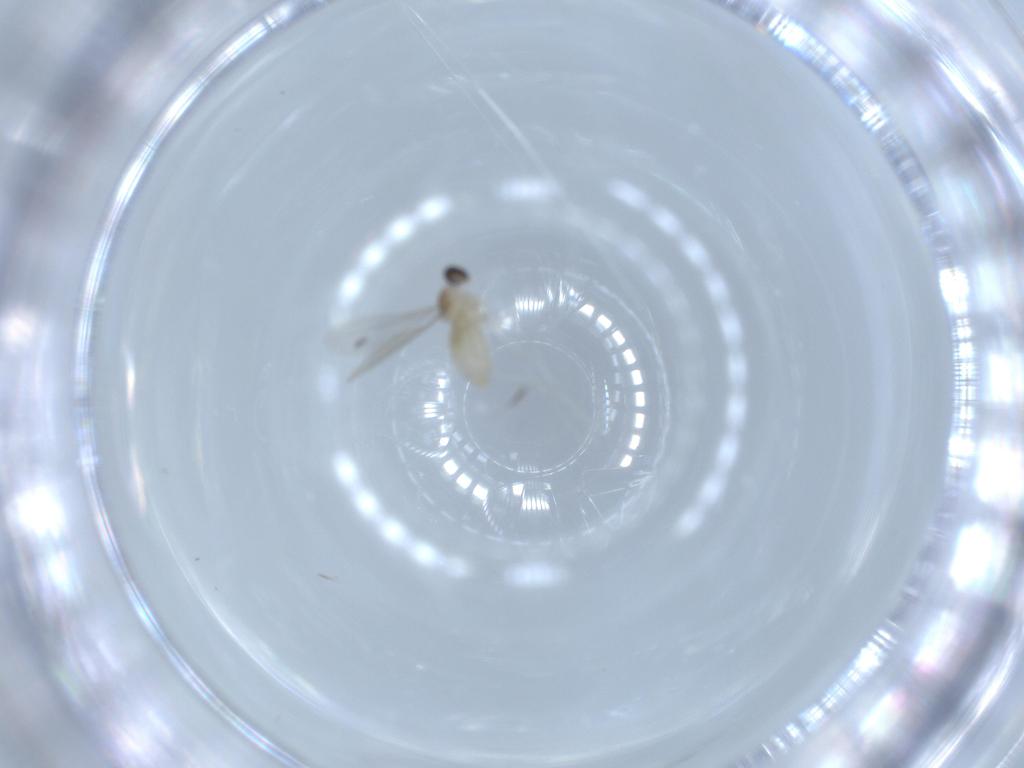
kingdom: Animalia
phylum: Arthropoda
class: Insecta
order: Diptera
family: Cecidomyiidae
